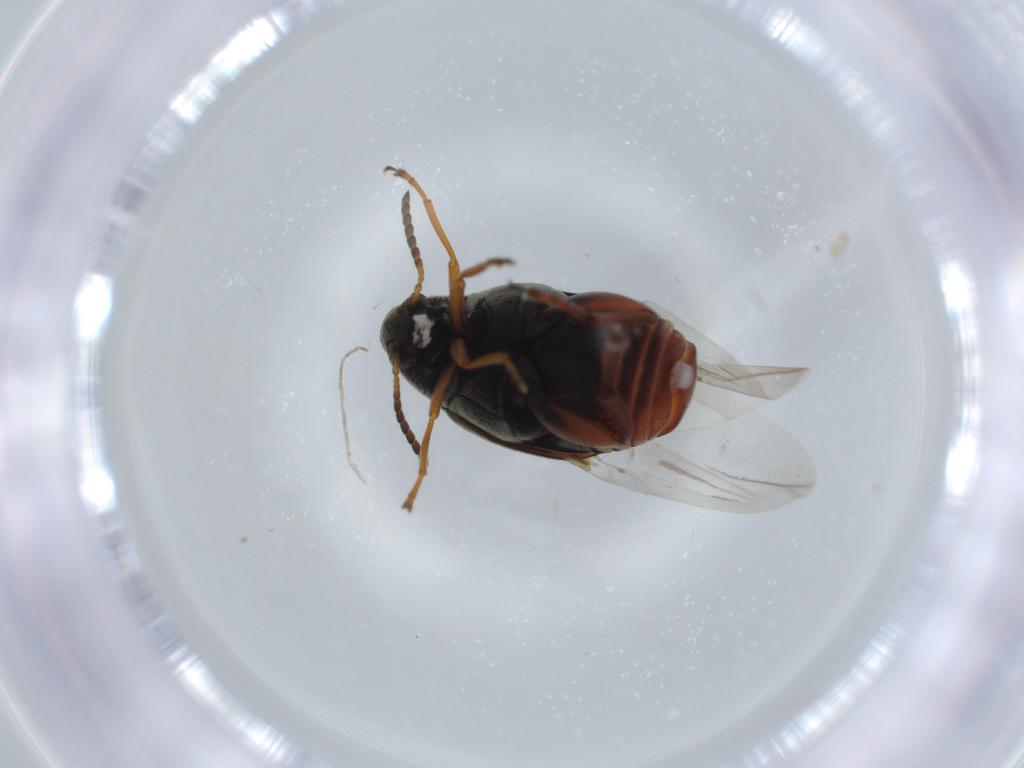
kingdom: Animalia
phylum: Arthropoda
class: Insecta
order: Coleoptera
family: Chrysomelidae
